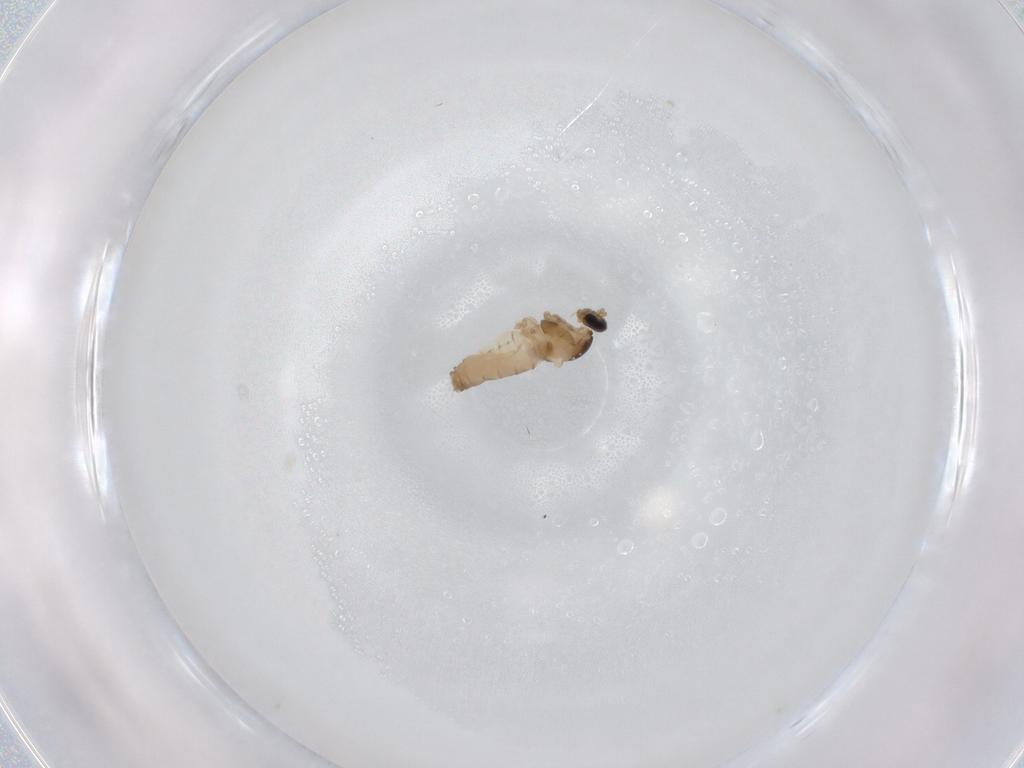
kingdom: Animalia
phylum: Arthropoda
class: Insecta
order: Diptera
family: Cecidomyiidae
